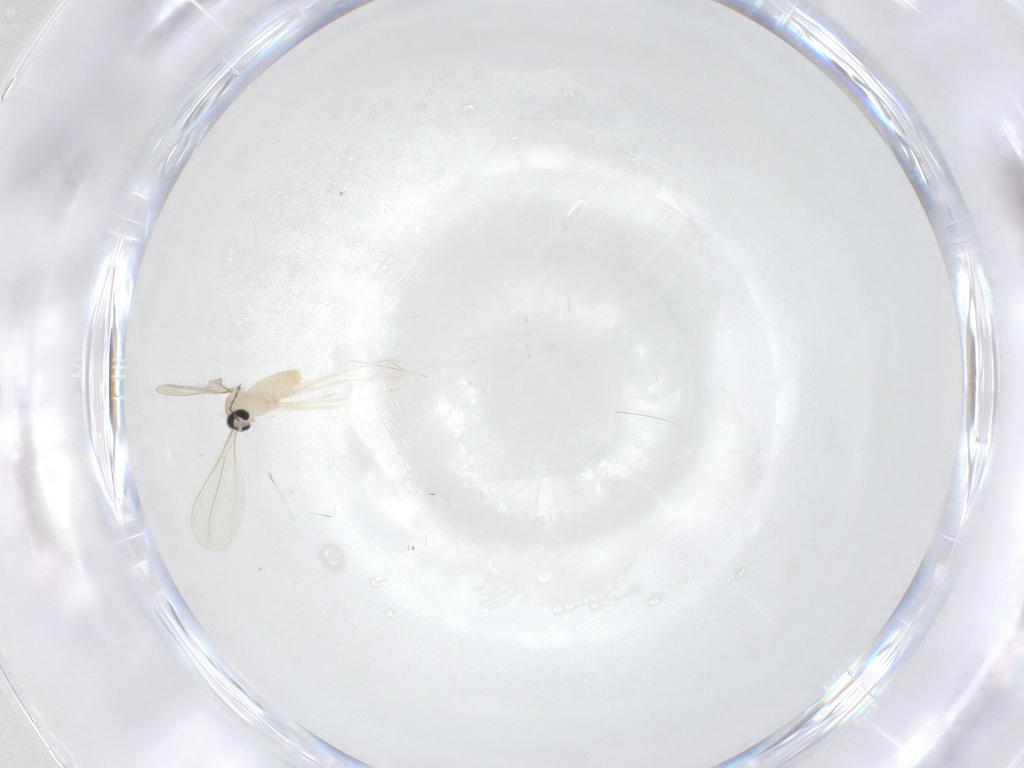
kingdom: Animalia
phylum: Arthropoda
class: Insecta
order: Diptera
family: Cecidomyiidae
